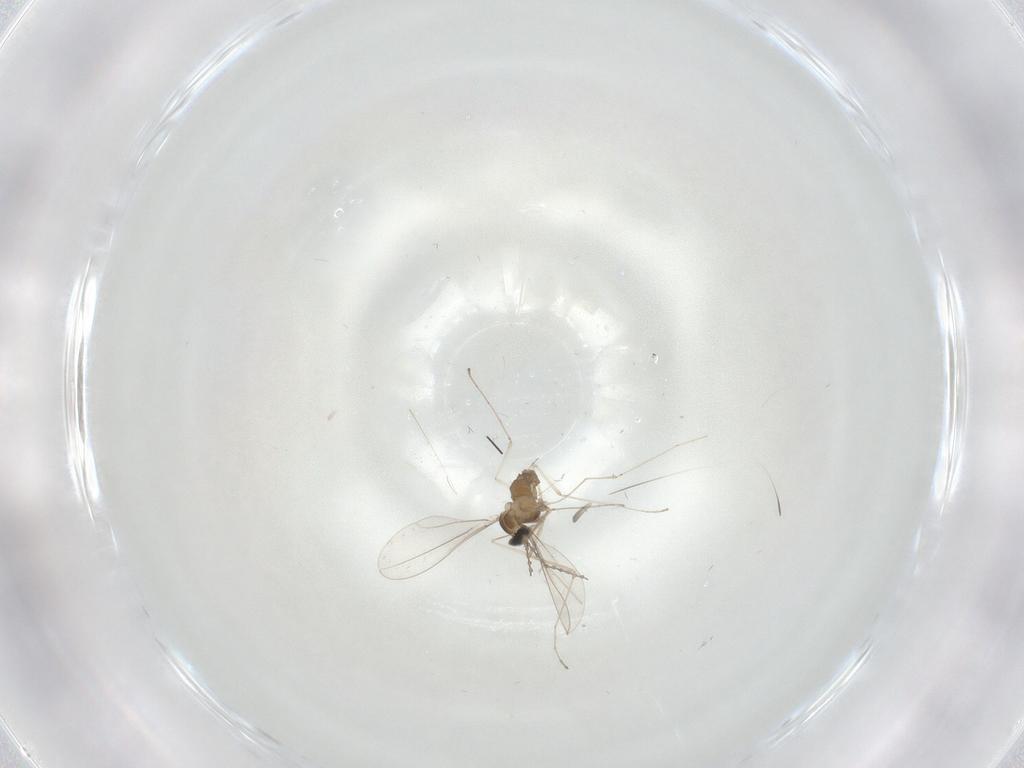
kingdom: Animalia
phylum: Arthropoda
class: Insecta
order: Diptera
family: Cecidomyiidae
